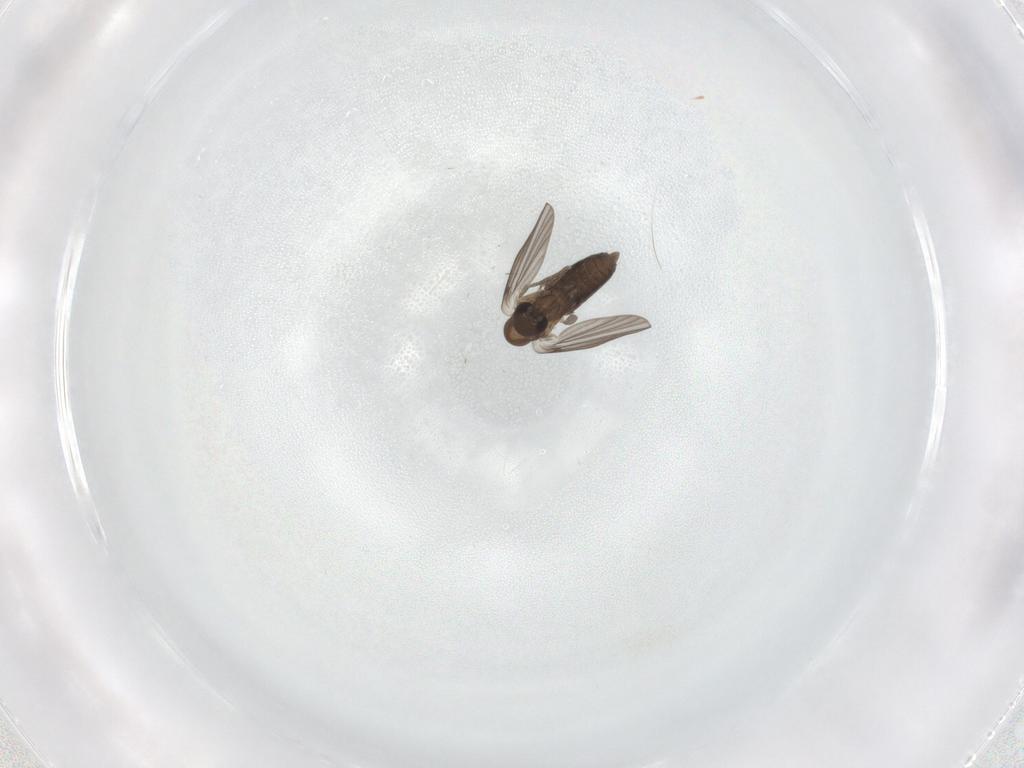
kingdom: Animalia
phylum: Arthropoda
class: Insecta
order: Diptera
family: Cecidomyiidae
